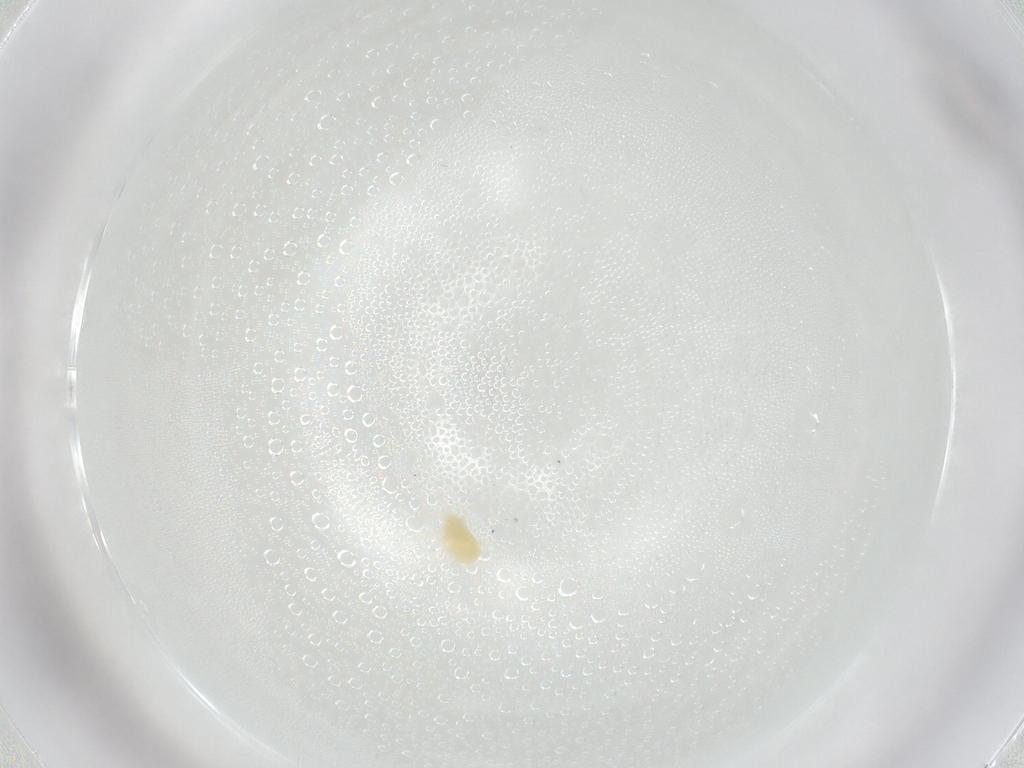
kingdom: Animalia
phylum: Arthropoda
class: Arachnida
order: Trombidiformes
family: Tetranychidae
